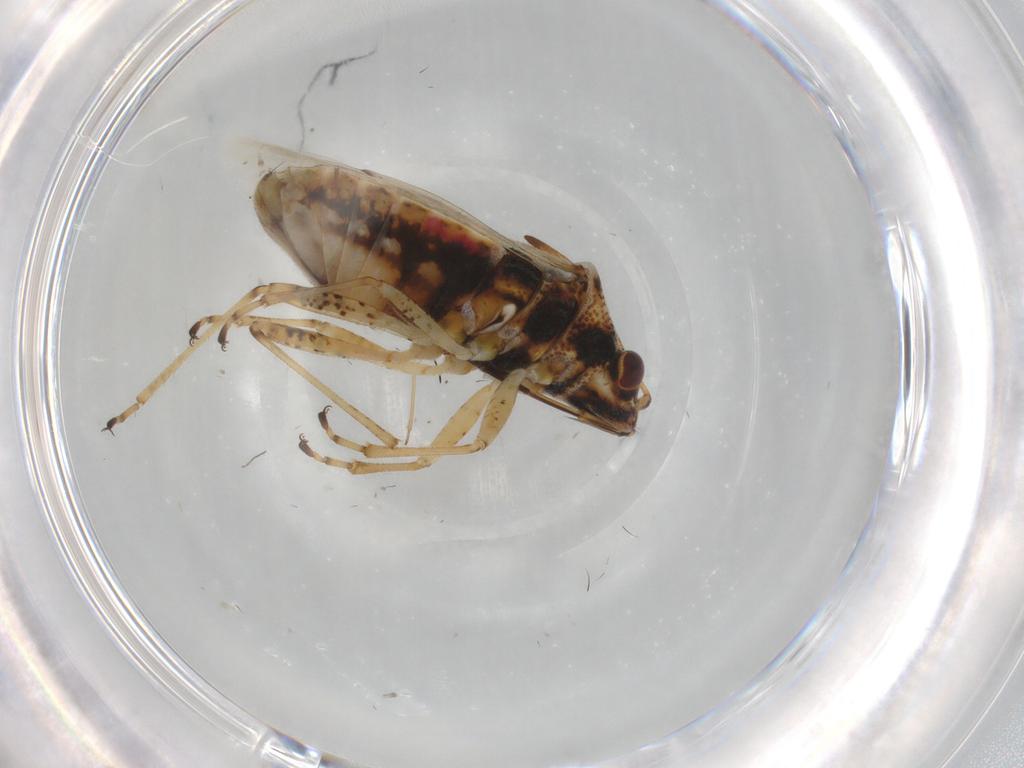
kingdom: Animalia
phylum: Arthropoda
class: Insecta
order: Hemiptera
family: Lygaeidae
